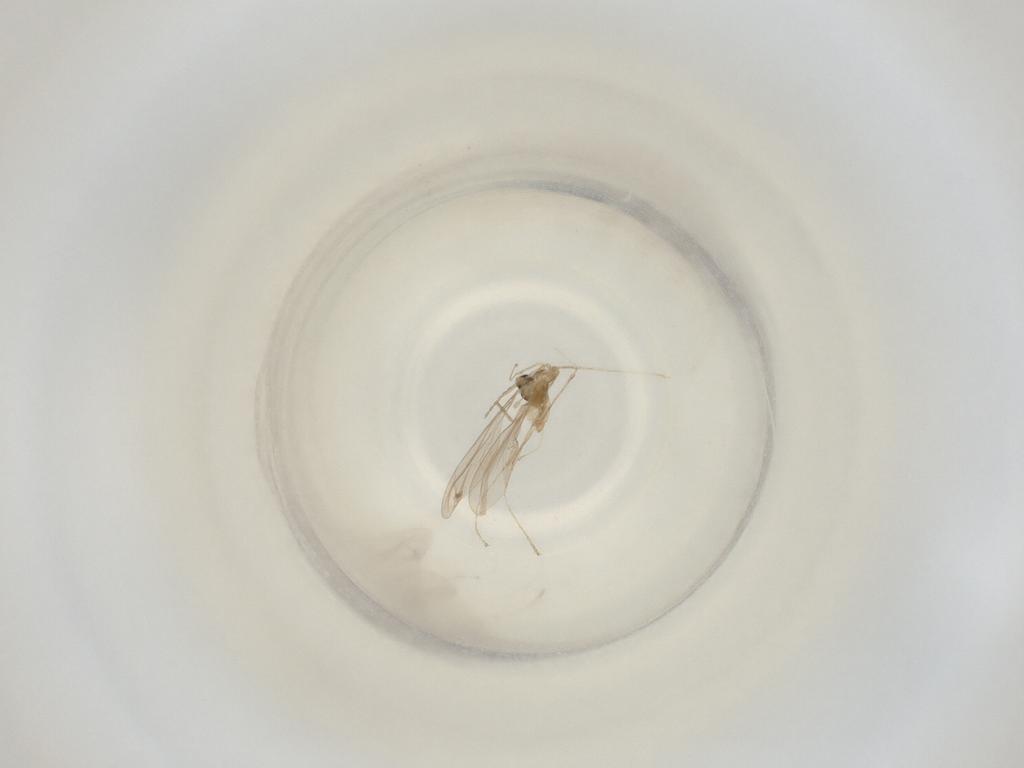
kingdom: Animalia
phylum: Arthropoda
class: Insecta
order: Diptera
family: Cecidomyiidae
